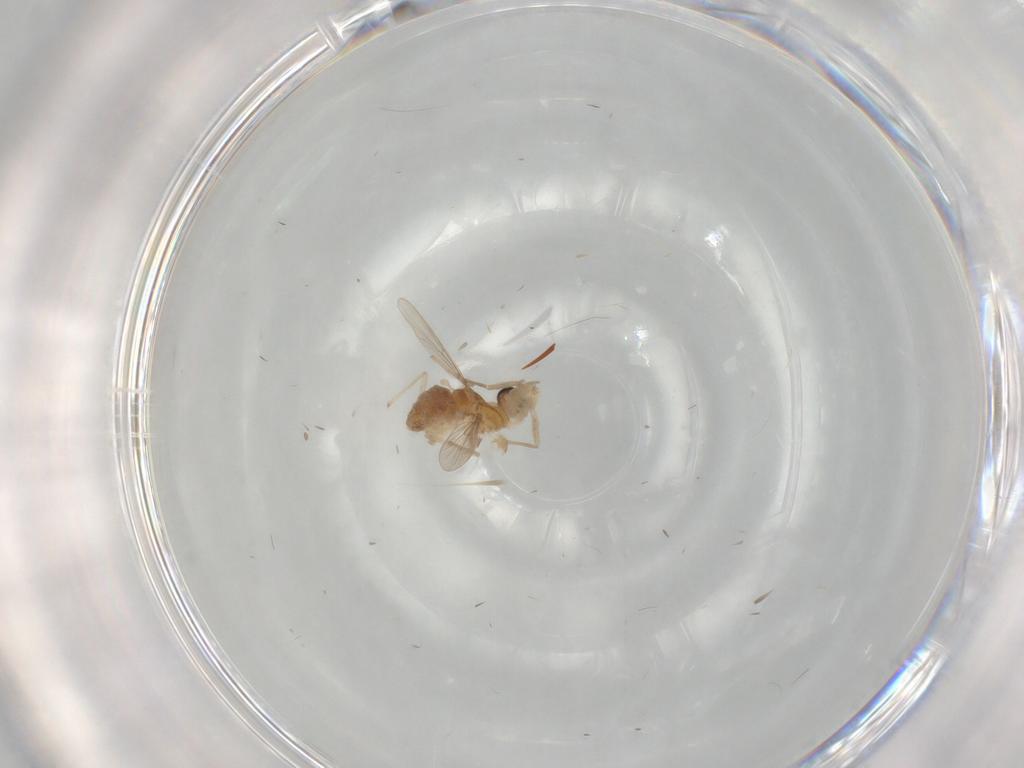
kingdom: Animalia
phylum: Arthropoda
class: Insecta
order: Diptera
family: Chironomidae
